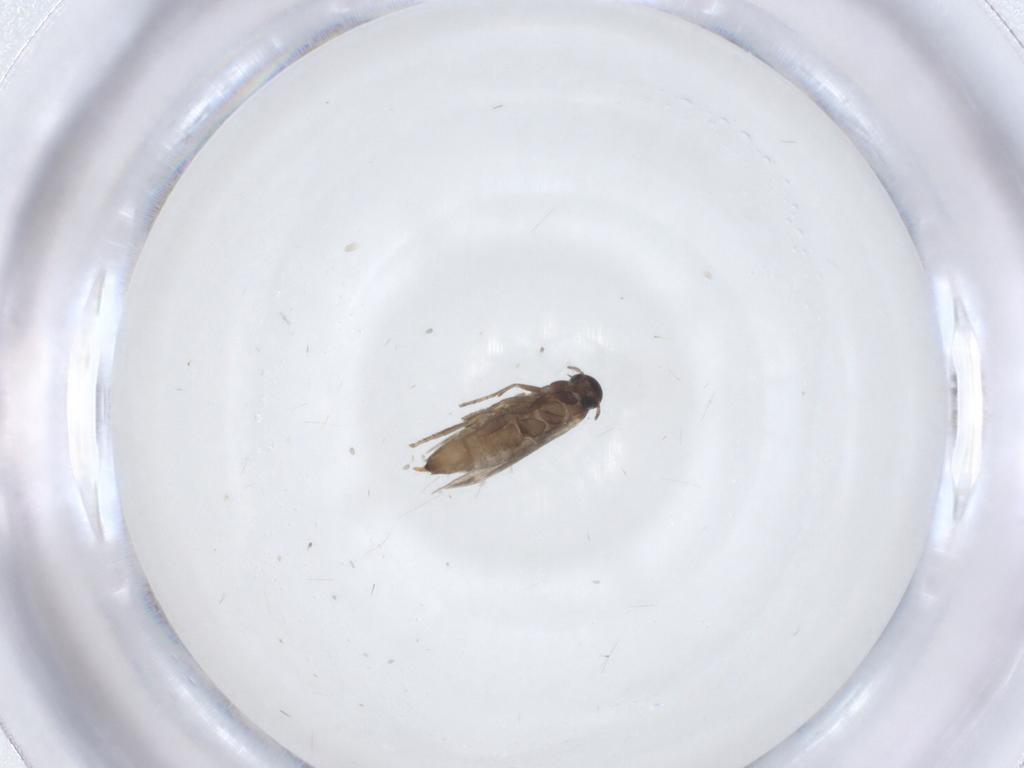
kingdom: Animalia
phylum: Arthropoda
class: Insecta
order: Lepidoptera
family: Heliozelidae
